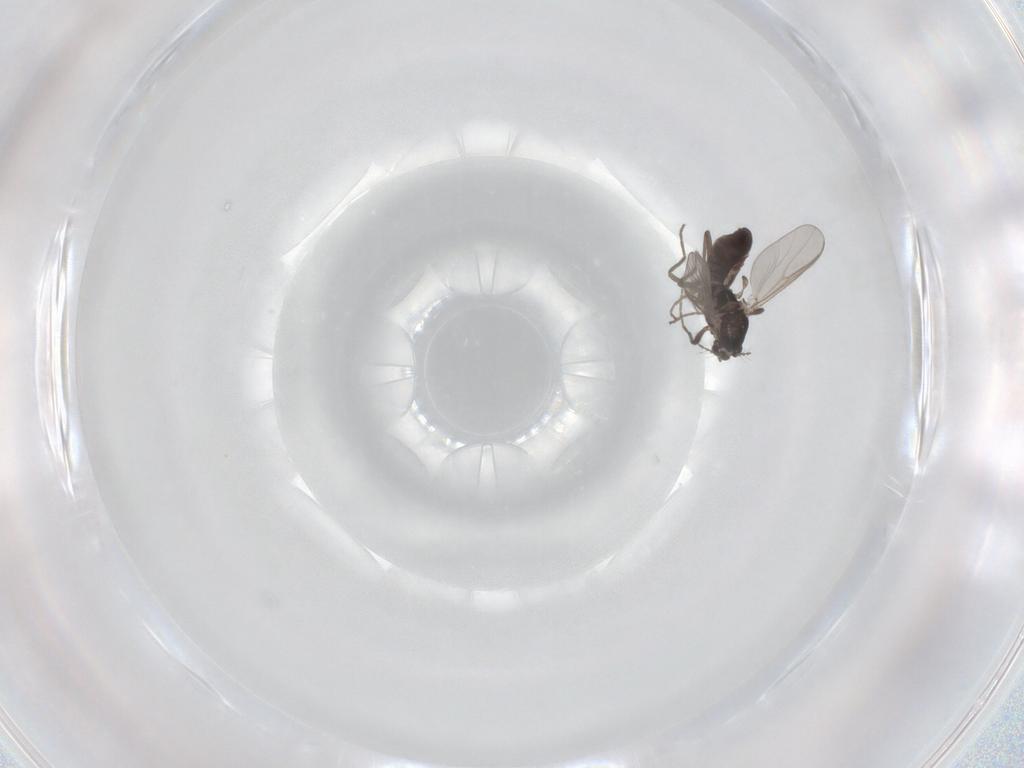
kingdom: Animalia
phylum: Arthropoda
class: Insecta
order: Diptera
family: Chironomidae
